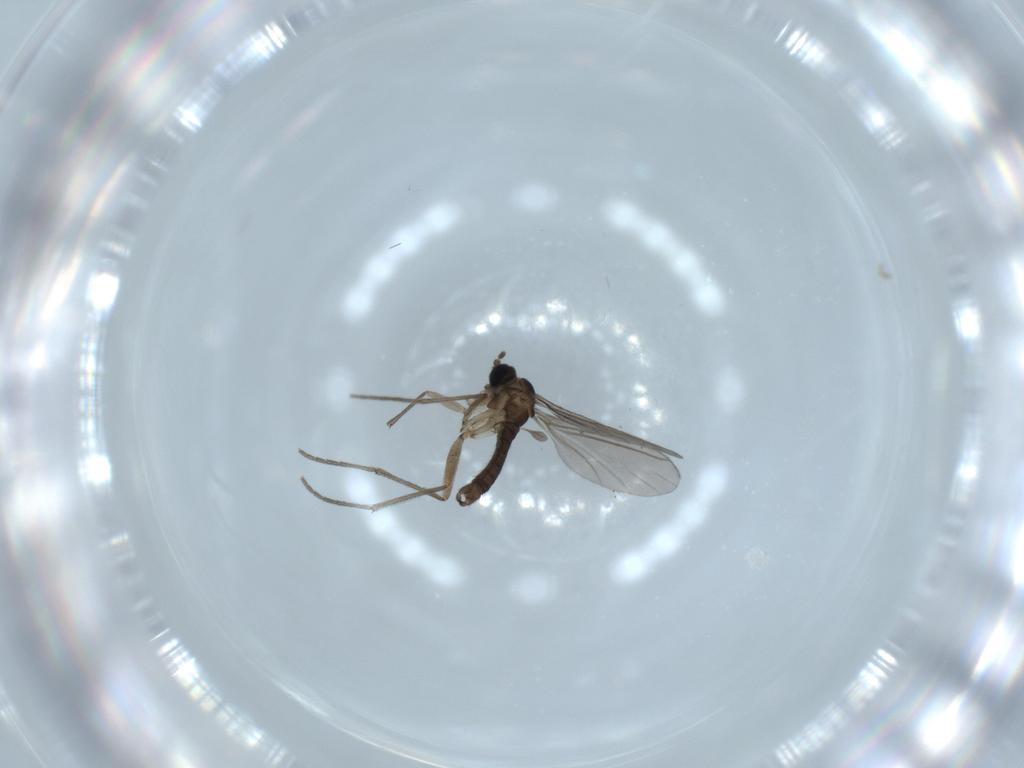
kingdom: Animalia
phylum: Arthropoda
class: Insecta
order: Diptera
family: Sciaridae
